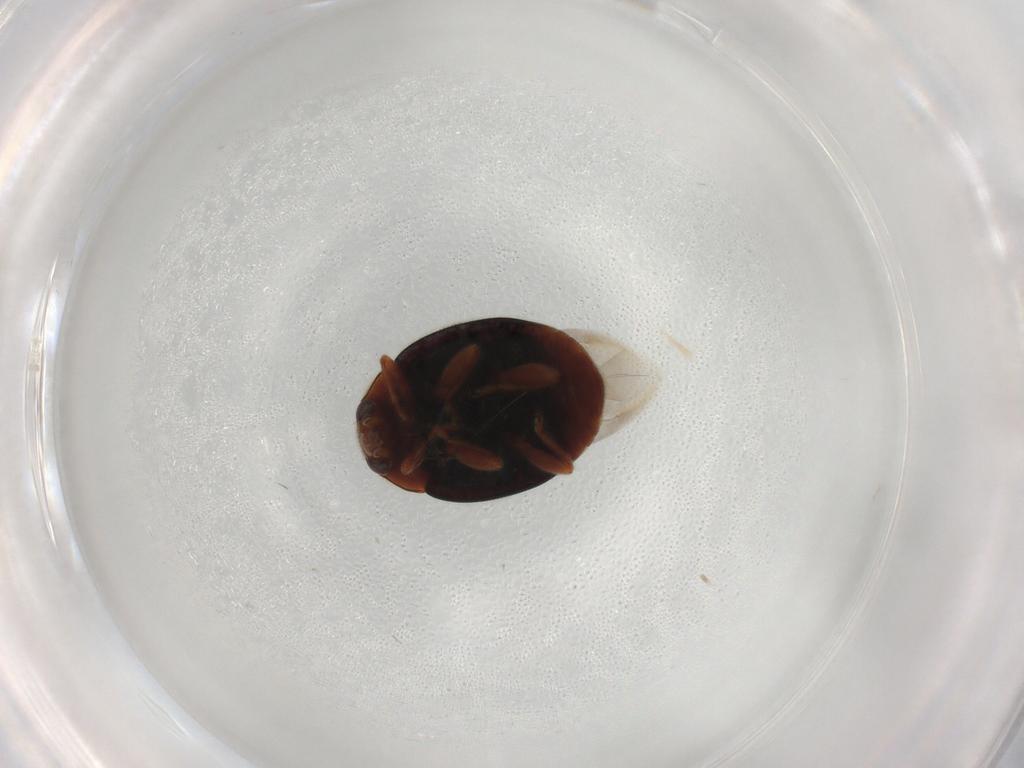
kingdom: Animalia
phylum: Arthropoda
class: Insecta
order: Coleoptera
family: Coccinellidae
